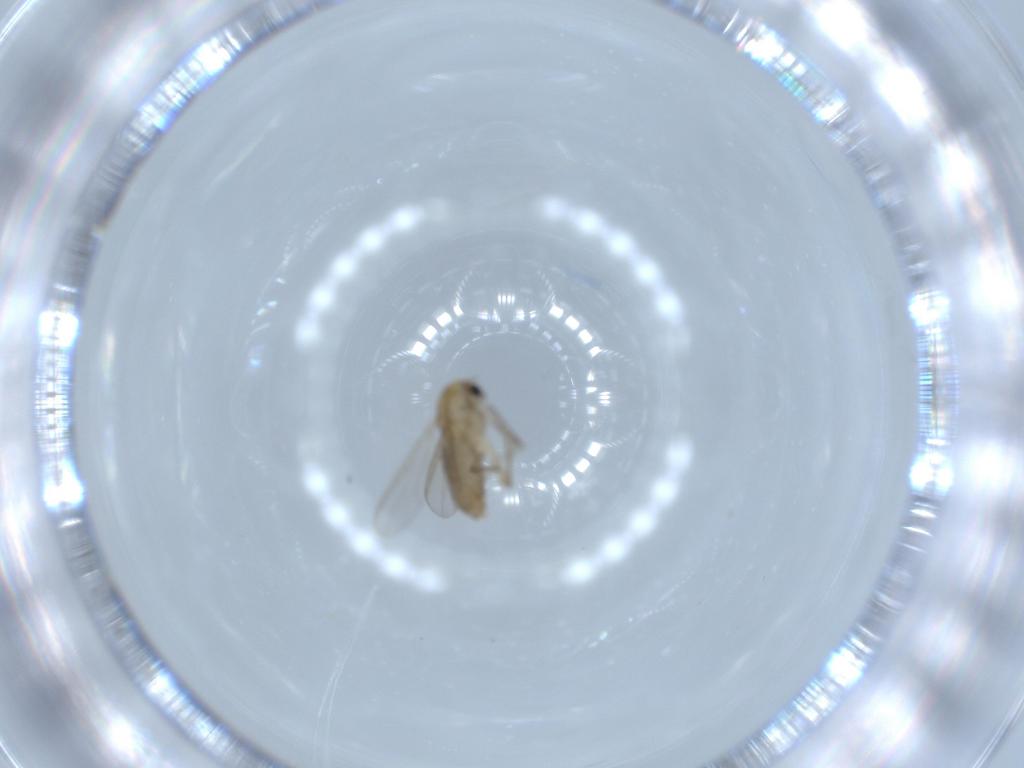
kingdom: Animalia
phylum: Arthropoda
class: Insecta
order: Diptera
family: Chironomidae
